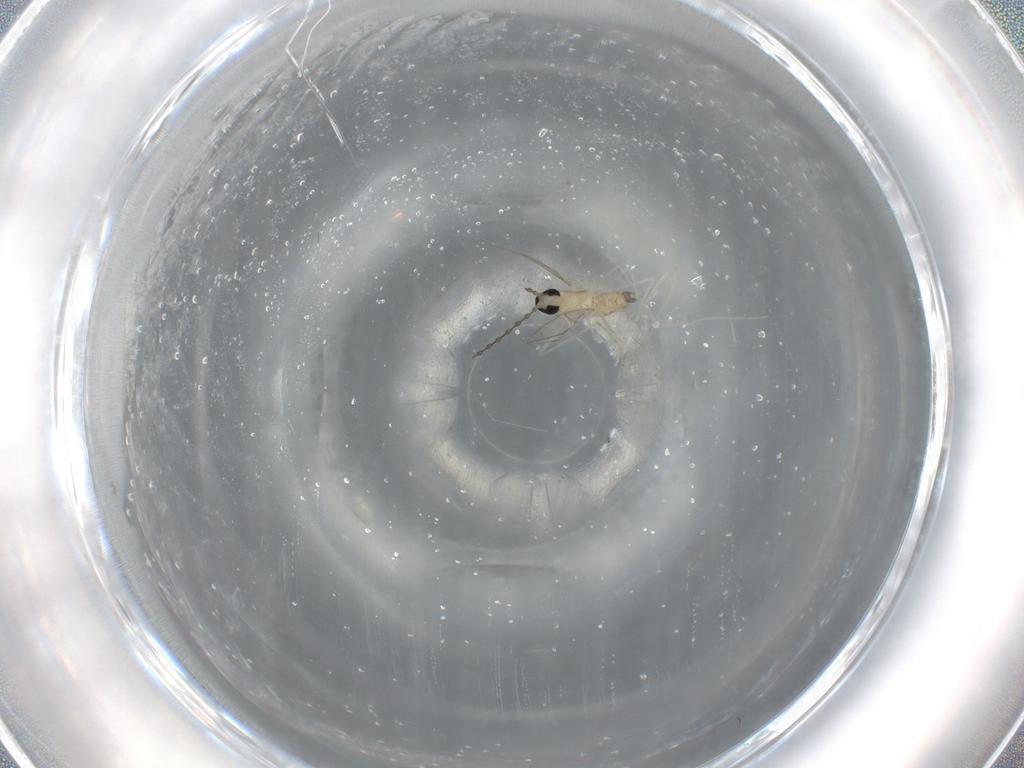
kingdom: Animalia
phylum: Arthropoda
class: Insecta
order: Diptera
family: Cecidomyiidae
